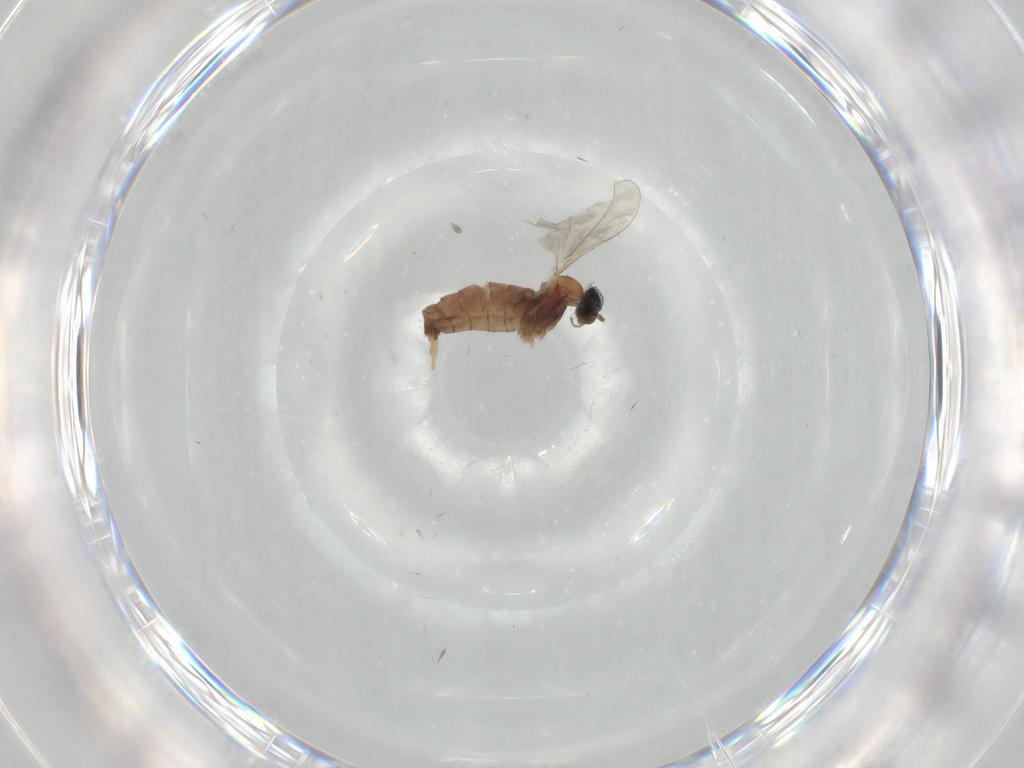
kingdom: Animalia
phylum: Arthropoda
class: Insecta
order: Diptera
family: Cecidomyiidae
